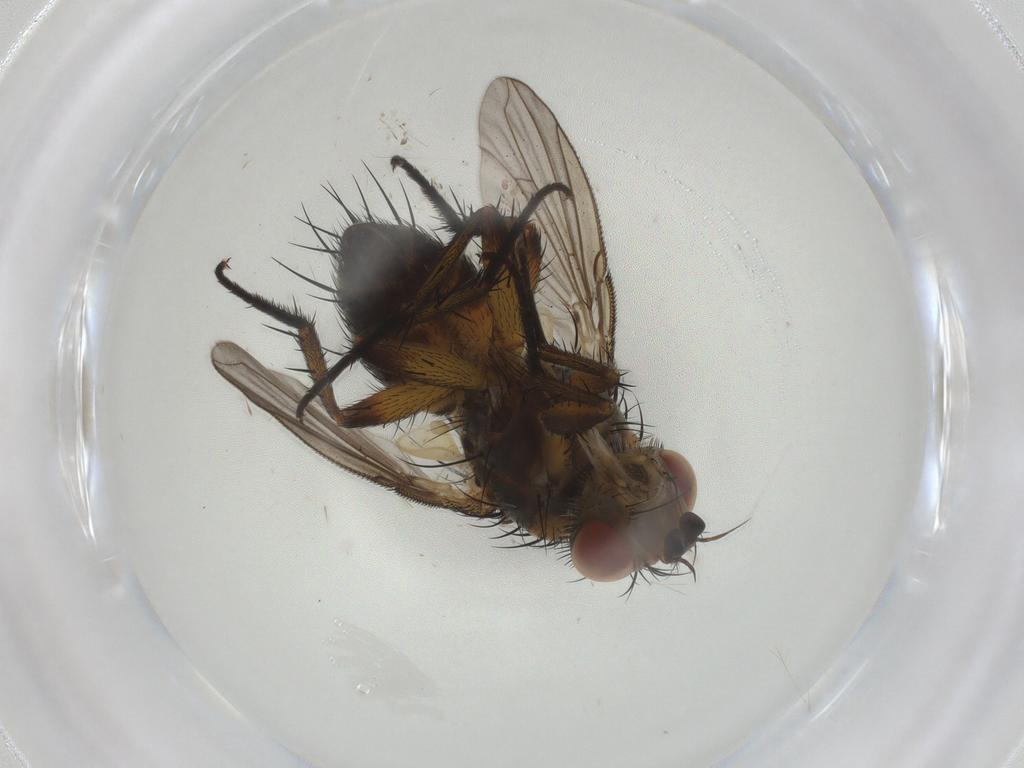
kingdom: Animalia
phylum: Arthropoda
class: Insecta
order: Diptera
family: Tachinidae
